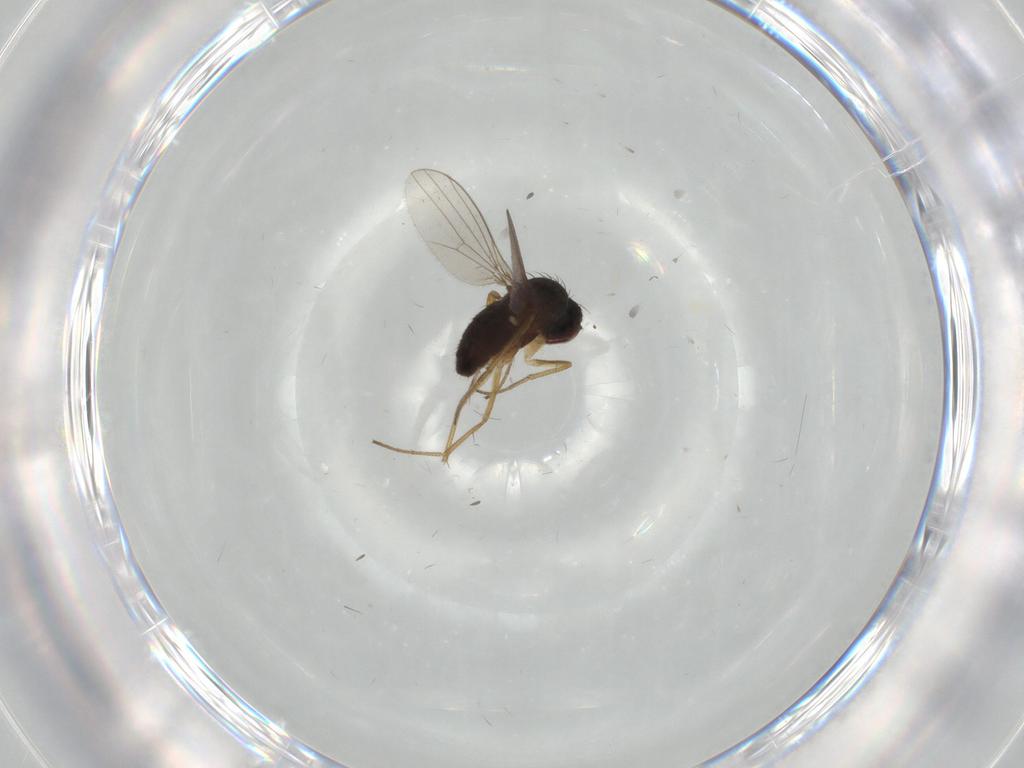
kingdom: Animalia
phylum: Arthropoda
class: Insecta
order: Diptera
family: Dolichopodidae
